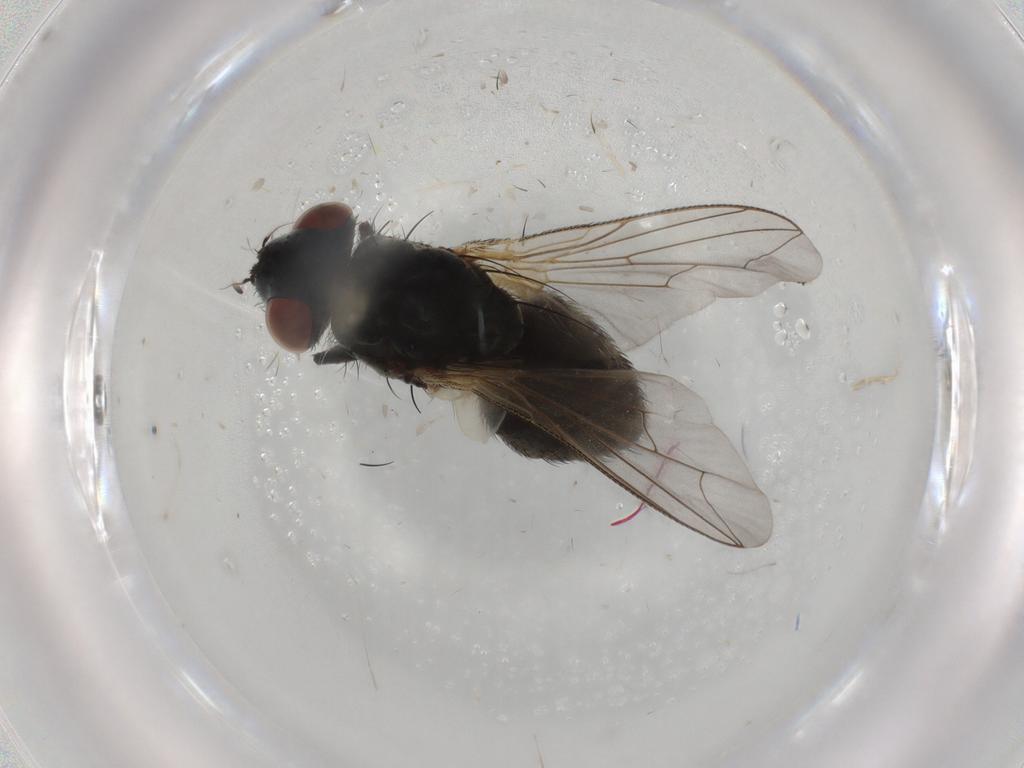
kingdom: Animalia
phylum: Arthropoda
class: Insecta
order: Diptera
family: Sarcophagidae
